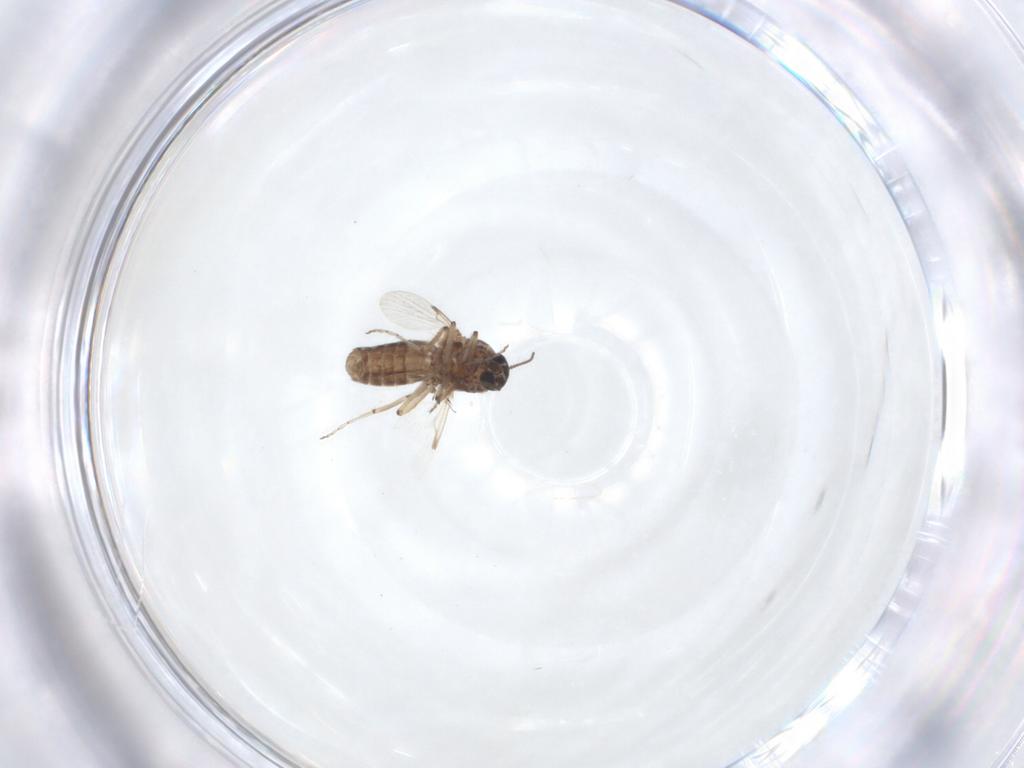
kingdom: Animalia
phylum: Arthropoda
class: Insecta
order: Diptera
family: Ceratopogonidae
